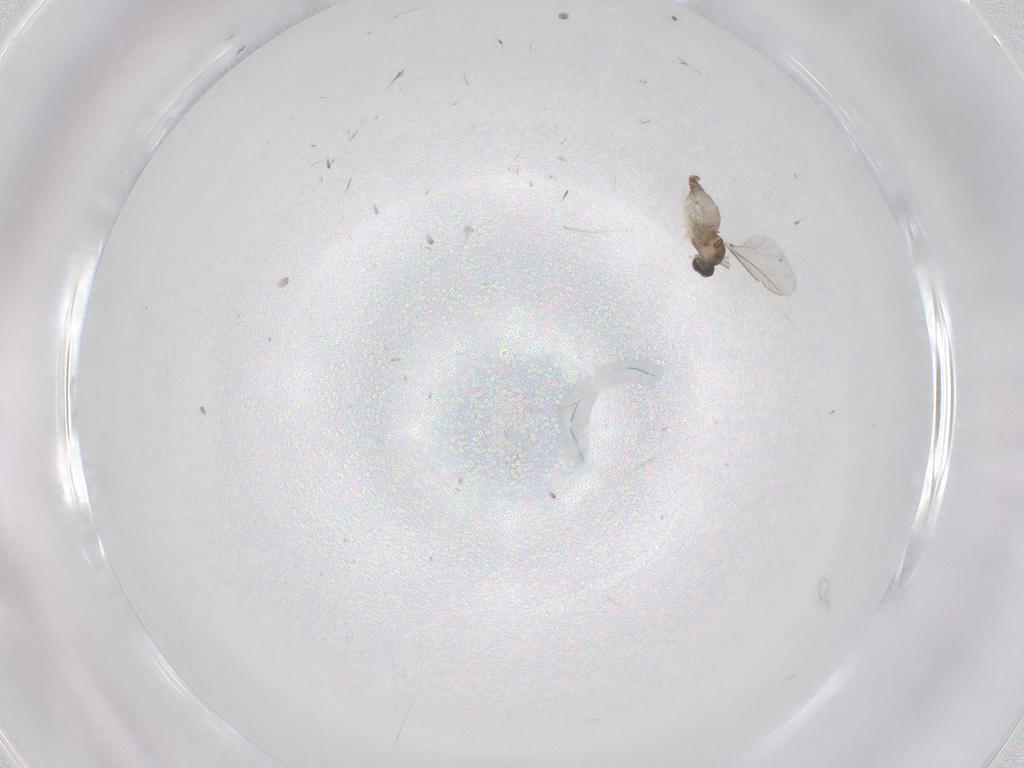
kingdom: Animalia
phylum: Arthropoda
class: Insecta
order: Diptera
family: Cecidomyiidae
